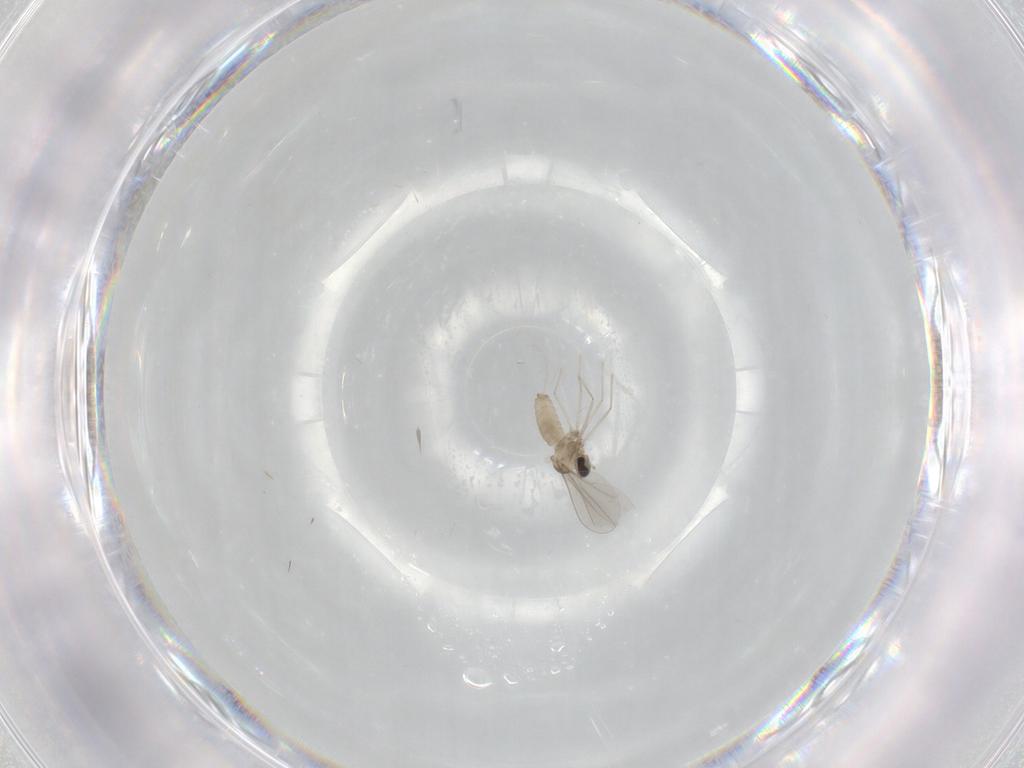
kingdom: Animalia
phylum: Arthropoda
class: Insecta
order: Diptera
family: Cecidomyiidae
